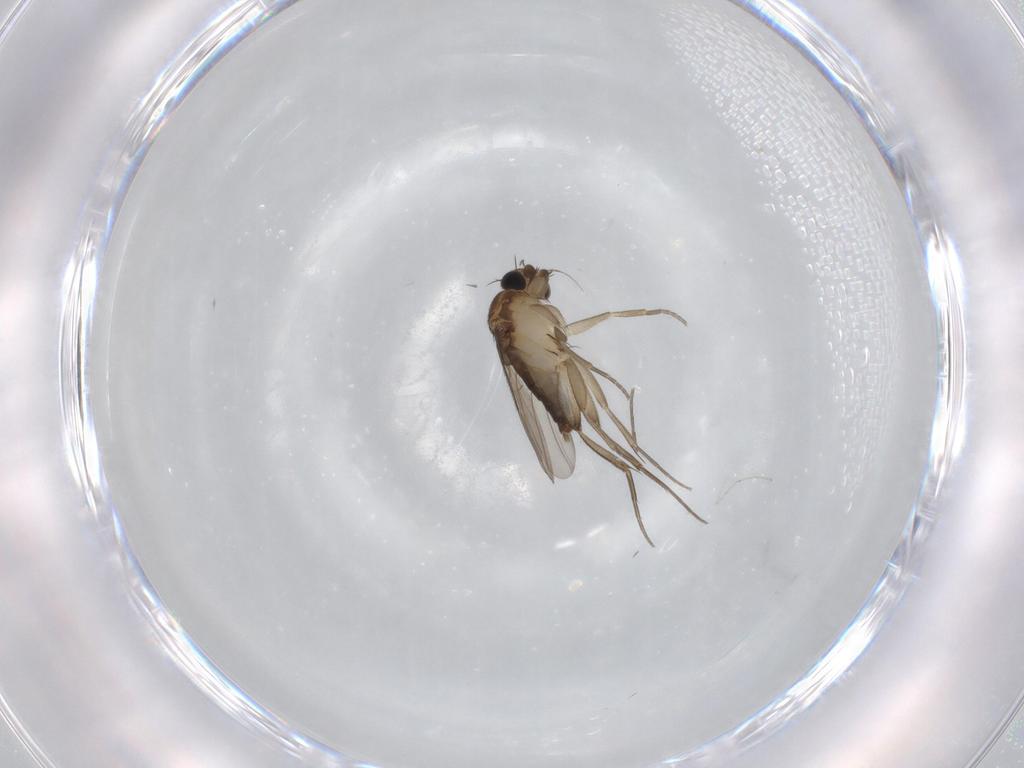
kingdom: Animalia
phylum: Arthropoda
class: Insecta
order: Diptera
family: Phoridae
